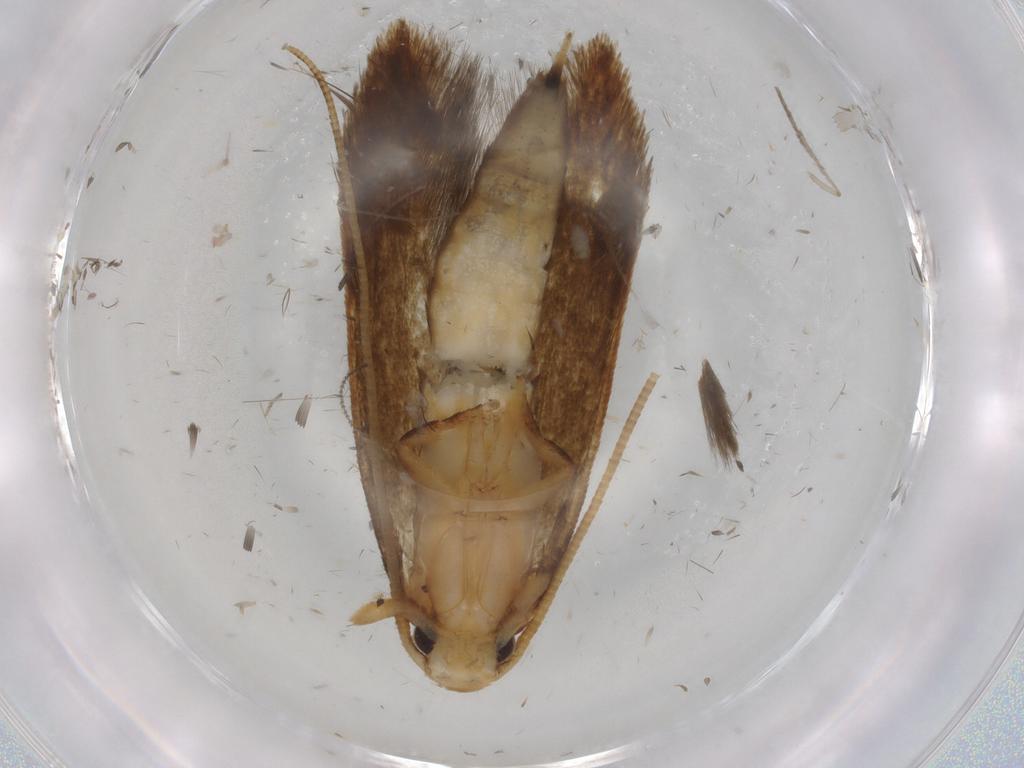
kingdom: Animalia
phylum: Arthropoda
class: Insecta
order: Lepidoptera
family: Tineidae
